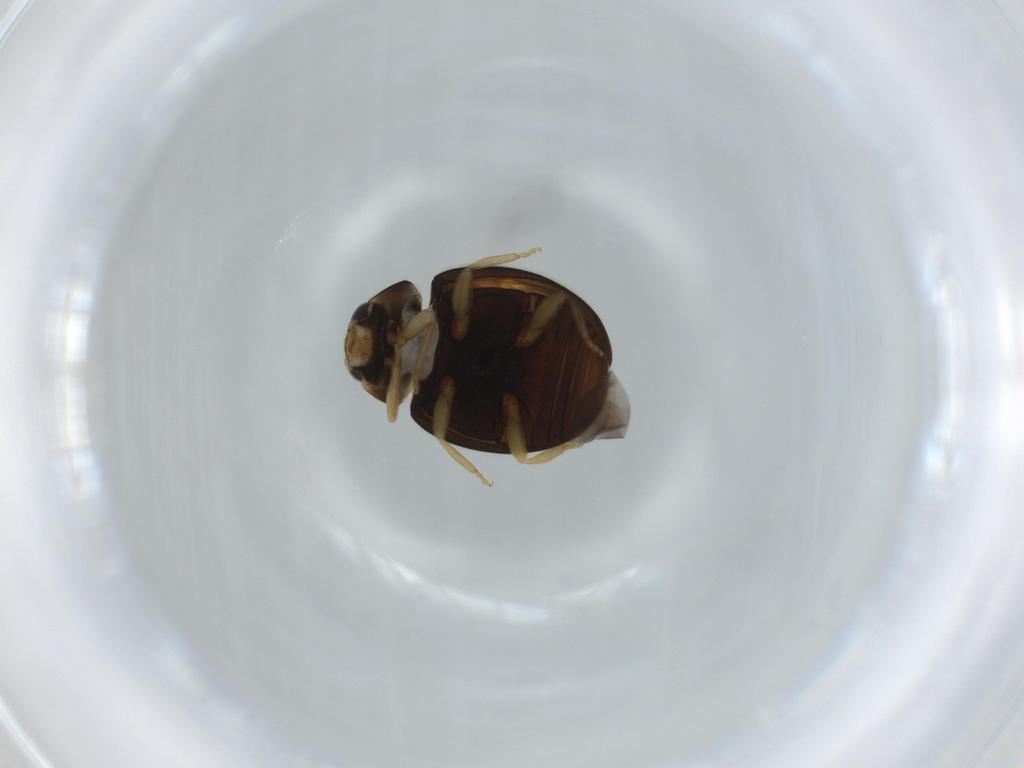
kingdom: Animalia
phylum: Arthropoda
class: Insecta
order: Coleoptera
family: Coccinellidae
